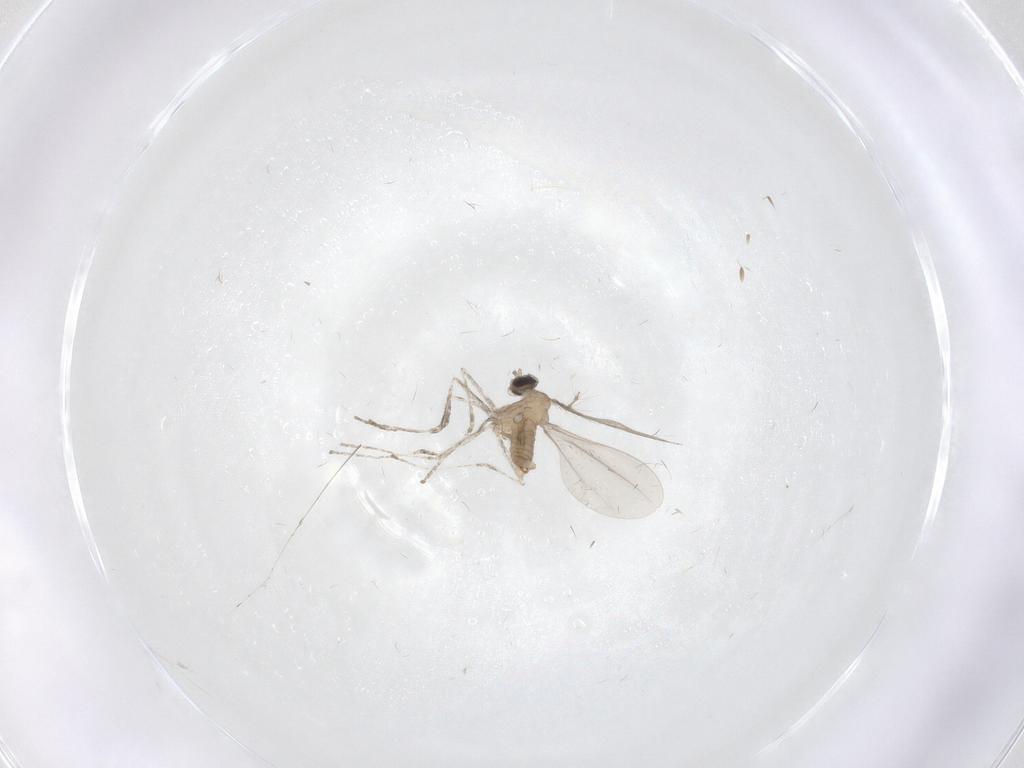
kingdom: Animalia
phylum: Arthropoda
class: Insecta
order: Diptera
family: Cecidomyiidae
